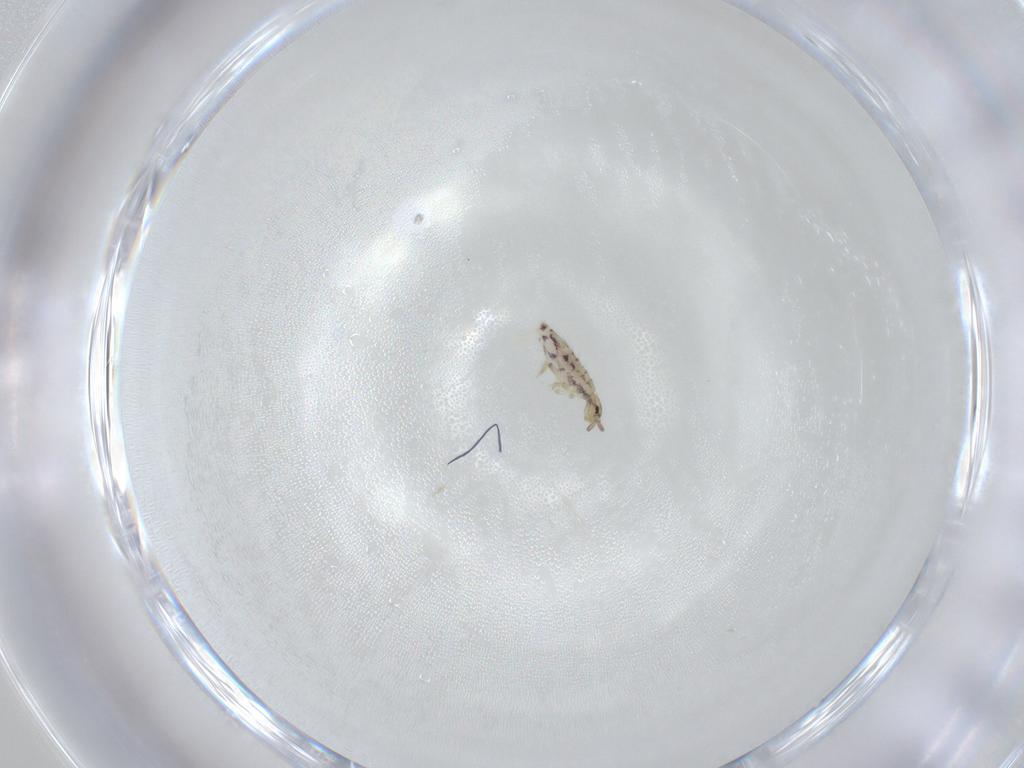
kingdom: Animalia
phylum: Arthropoda
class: Collembola
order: Entomobryomorpha
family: Entomobryidae
